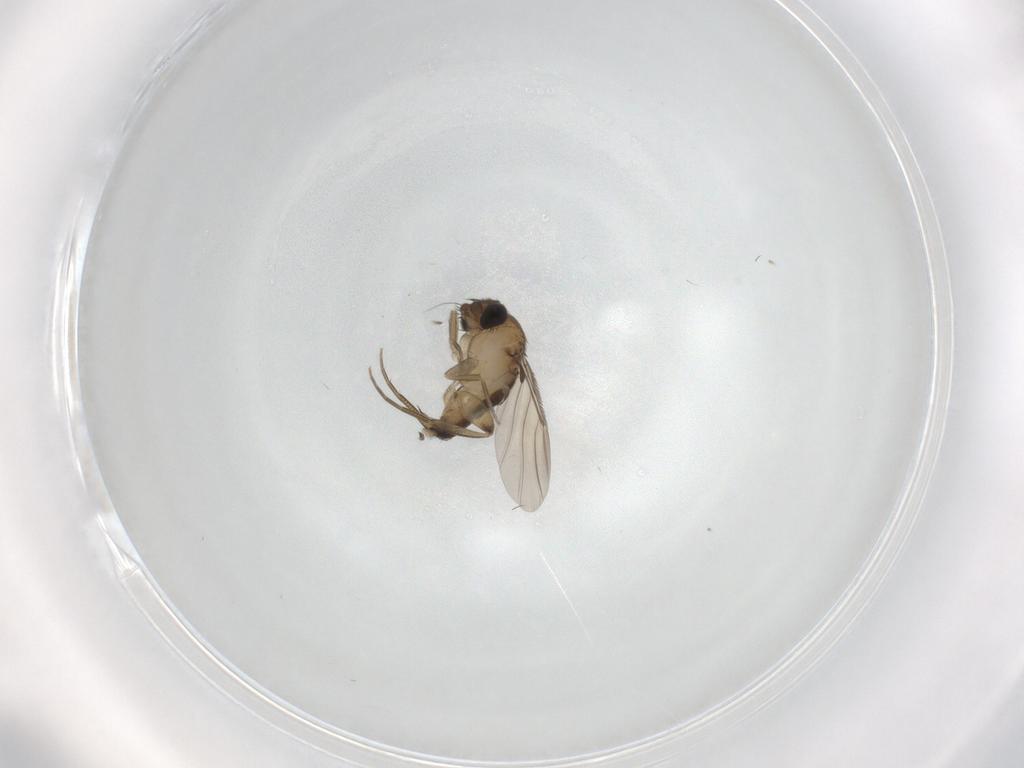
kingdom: Animalia
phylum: Arthropoda
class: Insecta
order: Diptera
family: Phoridae
